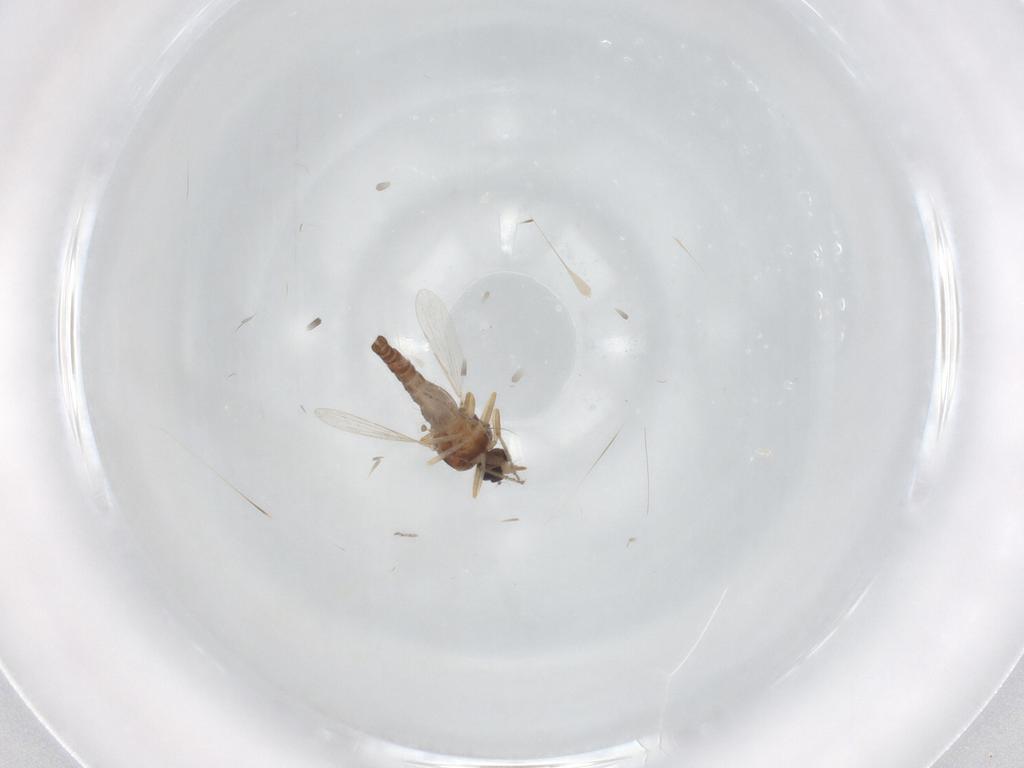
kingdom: Animalia
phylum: Arthropoda
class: Insecta
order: Diptera
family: Ceratopogonidae
